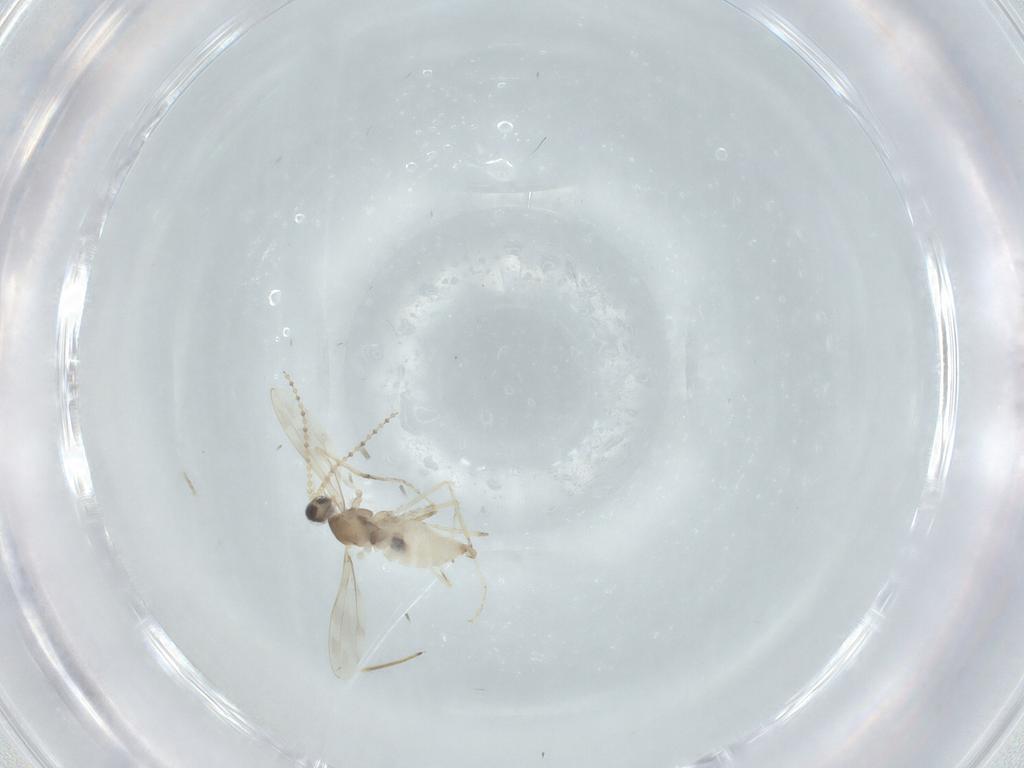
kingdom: Animalia
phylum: Arthropoda
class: Insecta
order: Diptera
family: Cecidomyiidae
